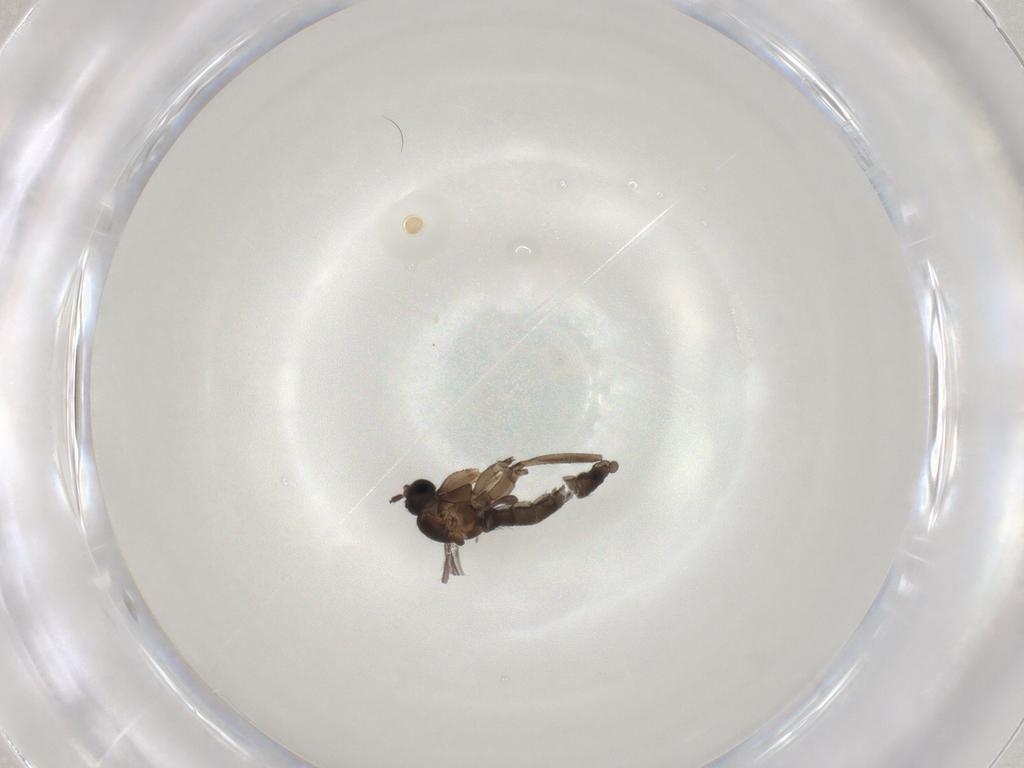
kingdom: Animalia
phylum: Arthropoda
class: Insecta
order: Diptera
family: Sciaridae
